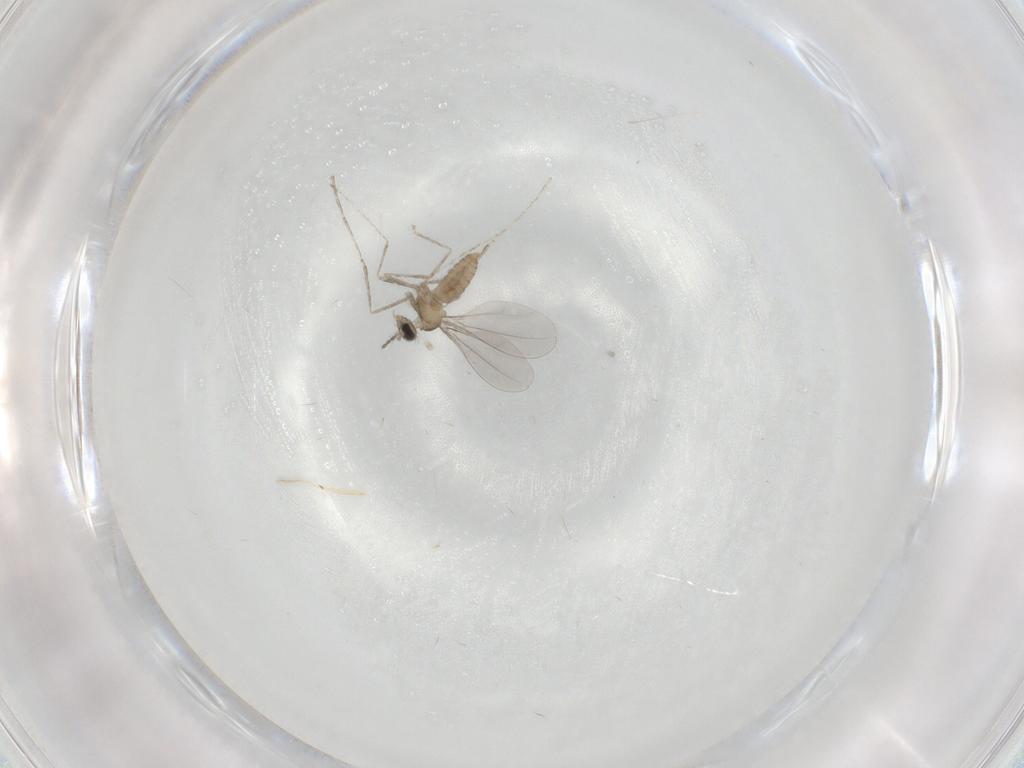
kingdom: Animalia
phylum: Arthropoda
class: Insecta
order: Diptera
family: Cecidomyiidae
